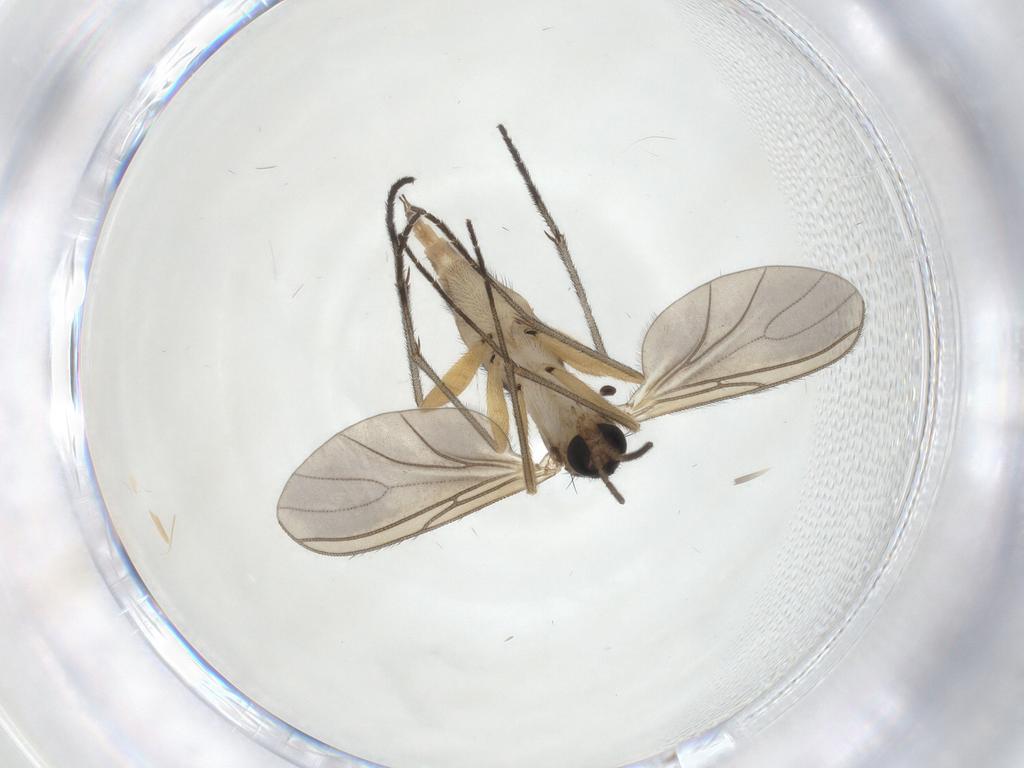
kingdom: Animalia
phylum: Arthropoda
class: Insecta
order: Diptera
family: Sciaridae
